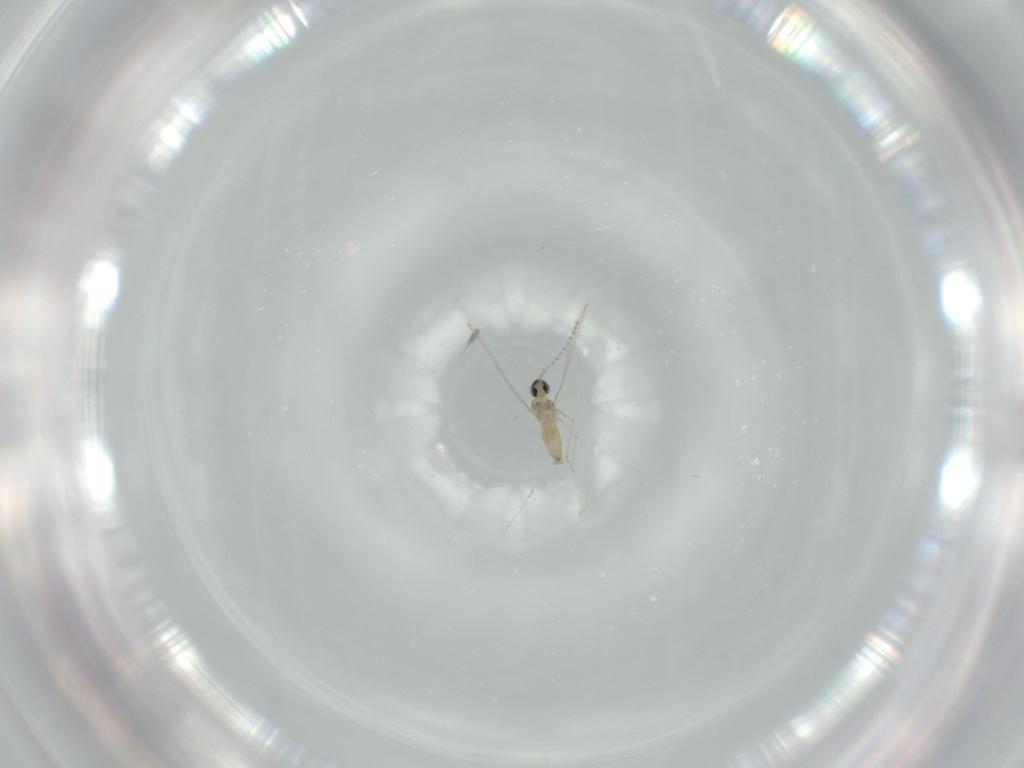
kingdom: Animalia
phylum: Arthropoda
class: Insecta
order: Diptera
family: Cecidomyiidae
